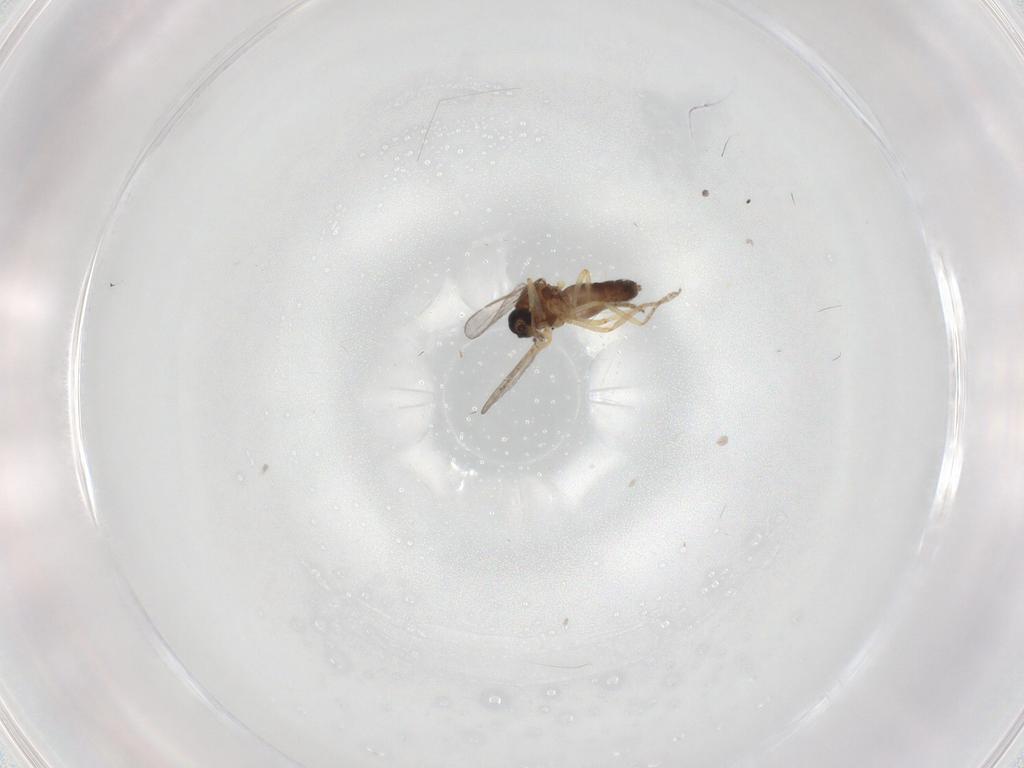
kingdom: Animalia
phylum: Arthropoda
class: Insecta
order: Diptera
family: Ceratopogonidae
